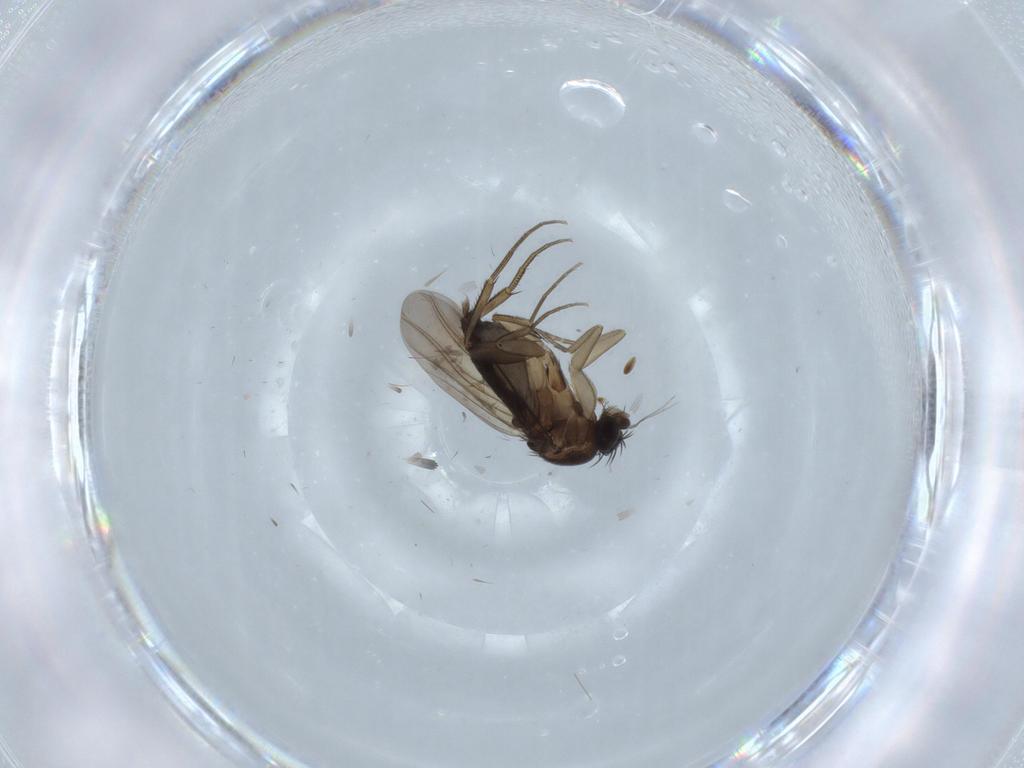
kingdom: Animalia
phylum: Arthropoda
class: Insecta
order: Diptera
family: Phoridae
